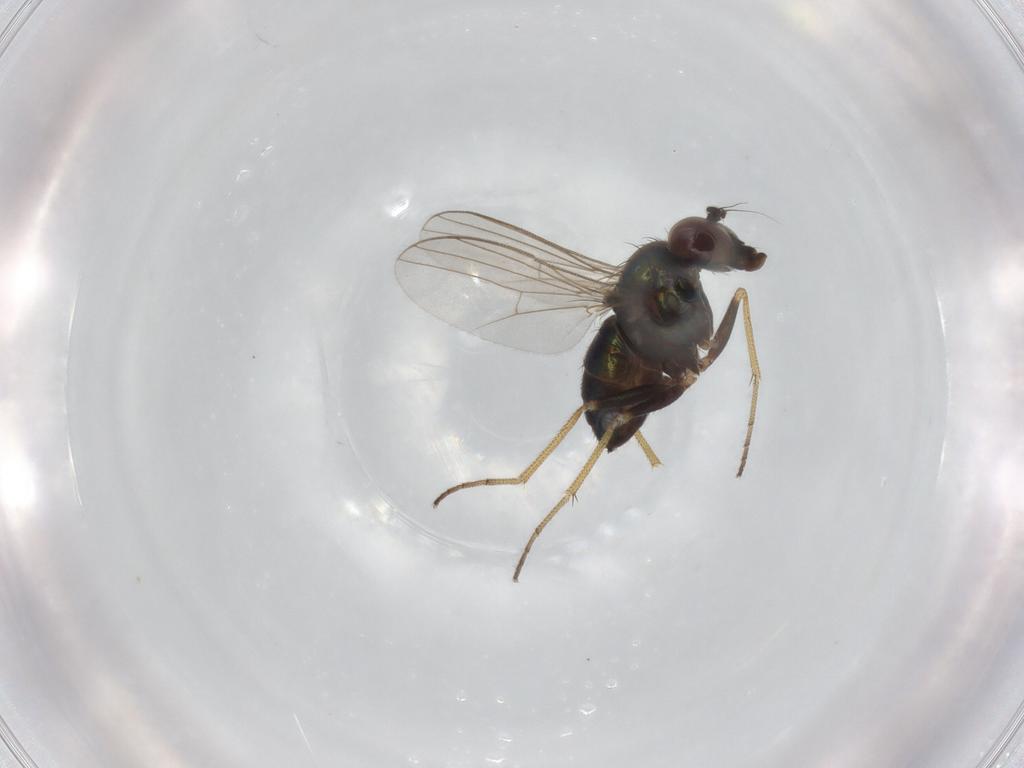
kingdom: Animalia
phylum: Arthropoda
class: Insecta
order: Diptera
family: Dolichopodidae
